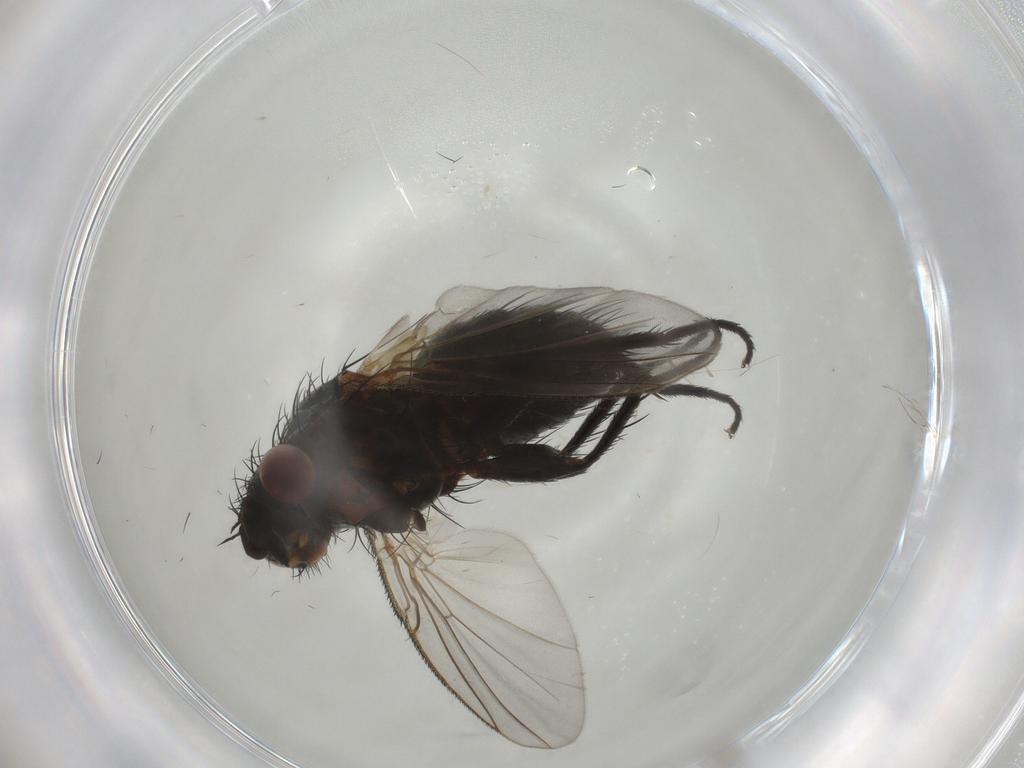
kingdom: Animalia
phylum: Arthropoda
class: Insecta
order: Diptera
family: Tachinidae
